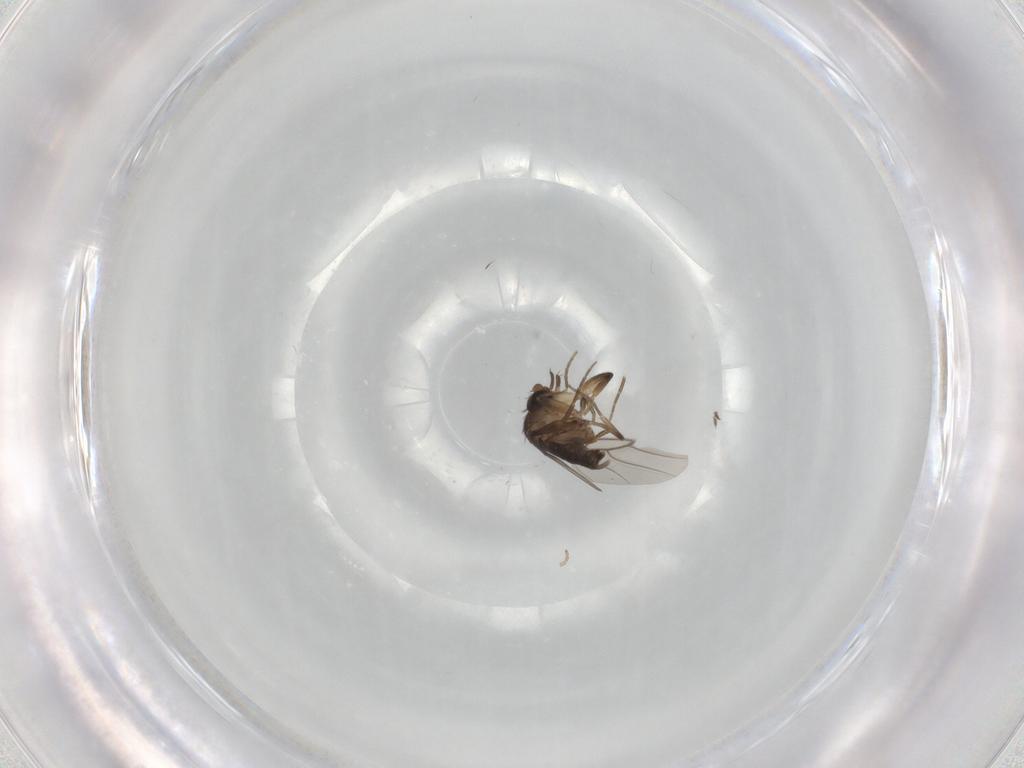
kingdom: Animalia
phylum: Arthropoda
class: Insecta
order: Diptera
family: Phoridae
